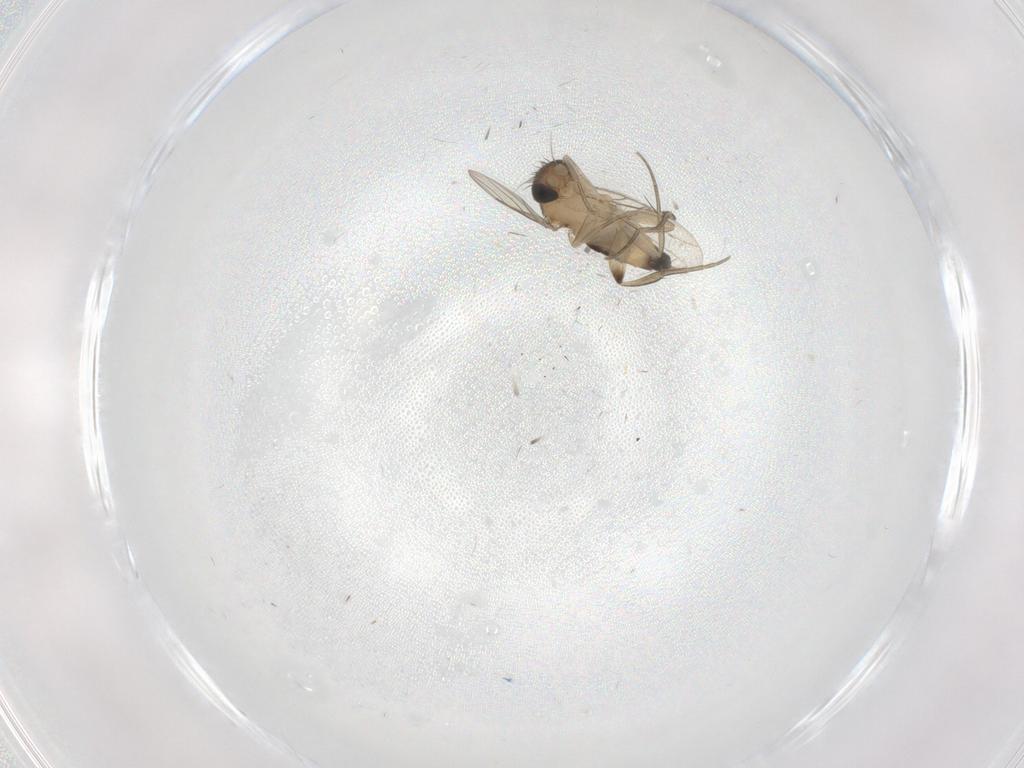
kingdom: Animalia
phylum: Arthropoda
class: Insecta
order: Diptera
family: Phoridae
